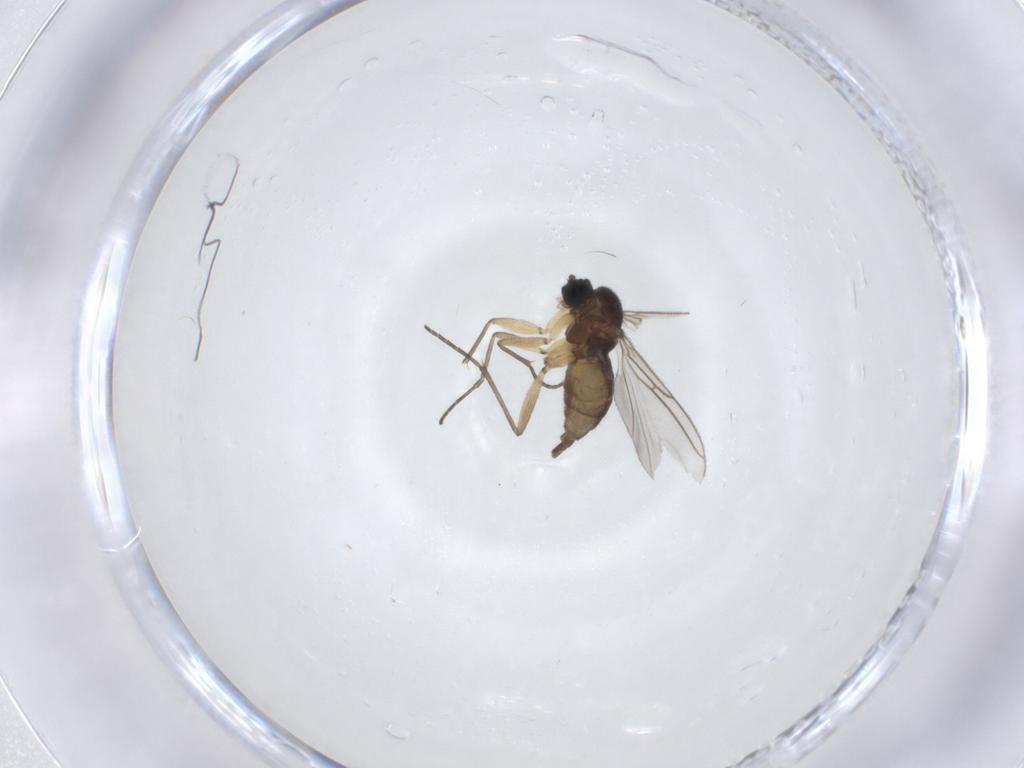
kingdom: Animalia
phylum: Arthropoda
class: Insecta
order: Diptera
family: Sciaridae
